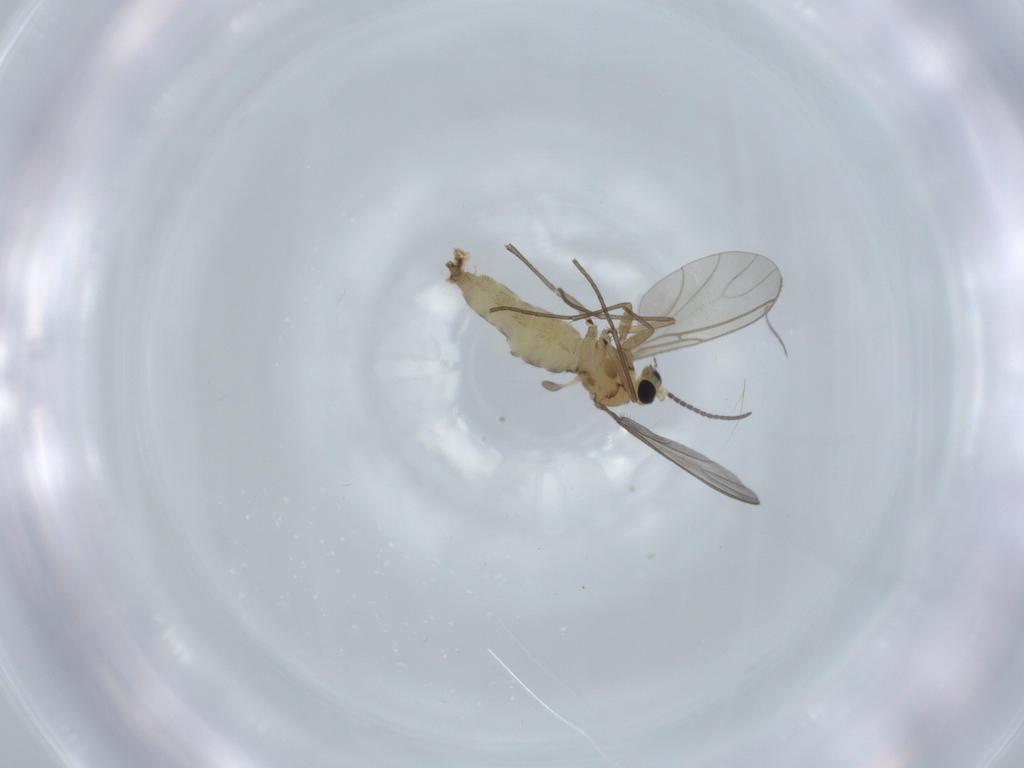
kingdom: Animalia
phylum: Arthropoda
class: Insecta
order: Diptera
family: Sciaridae
